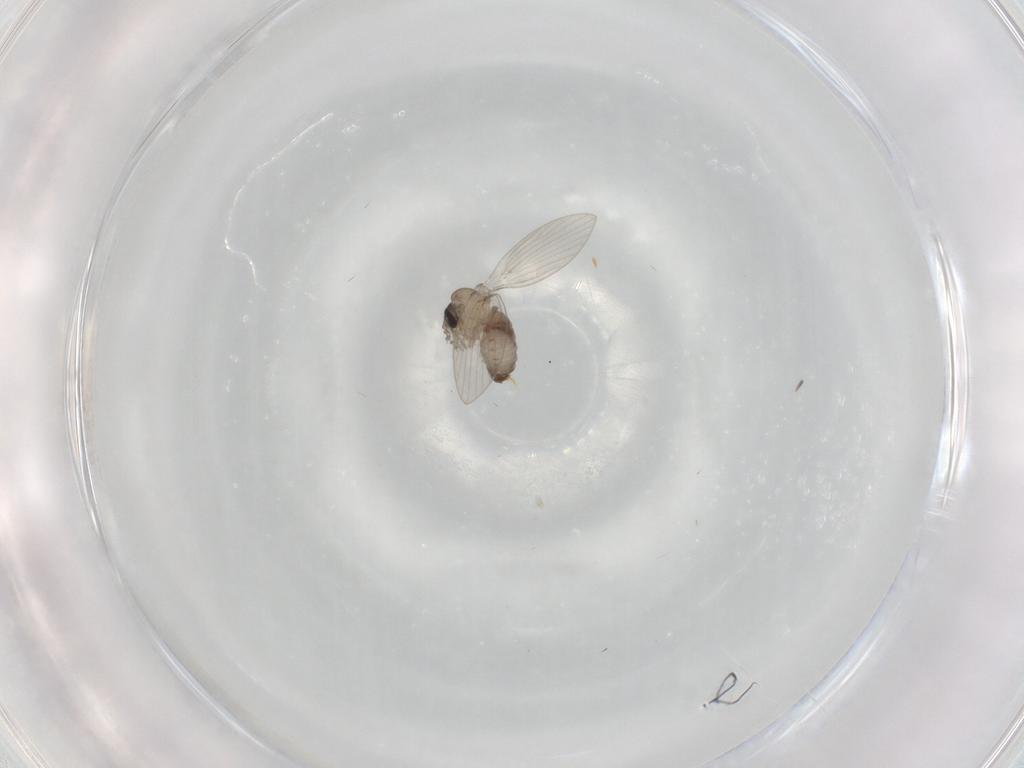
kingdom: Animalia
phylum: Arthropoda
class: Insecta
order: Diptera
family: Psychodidae
